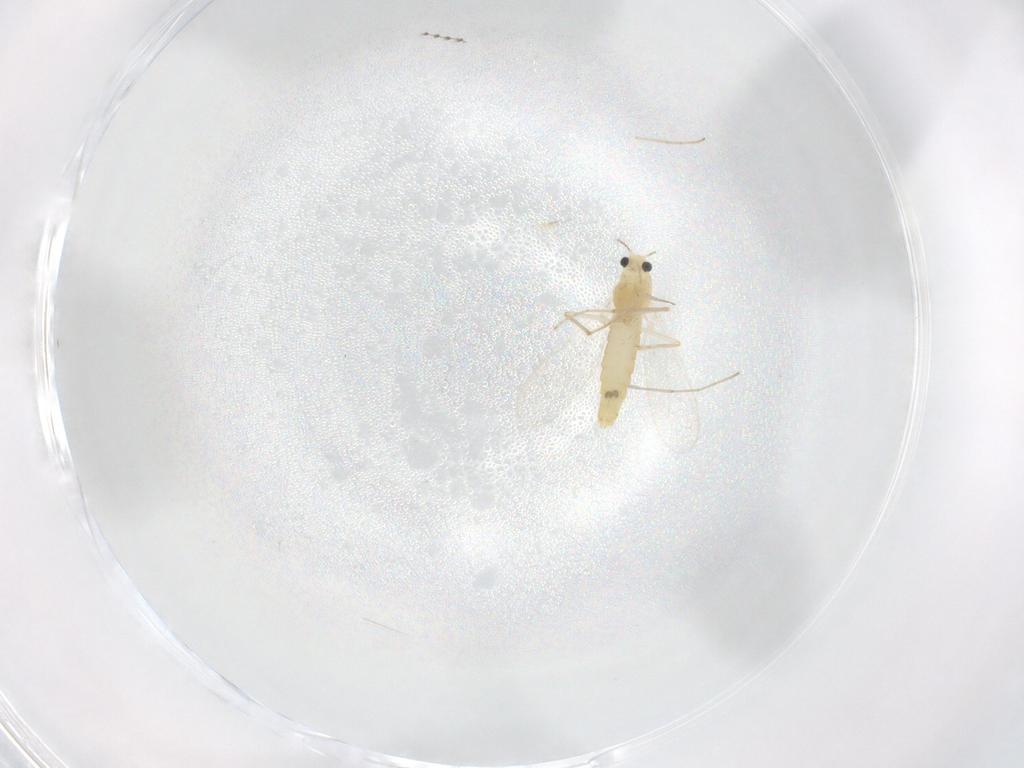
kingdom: Animalia
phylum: Arthropoda
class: Insecta
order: Diptera
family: Chironomidae
